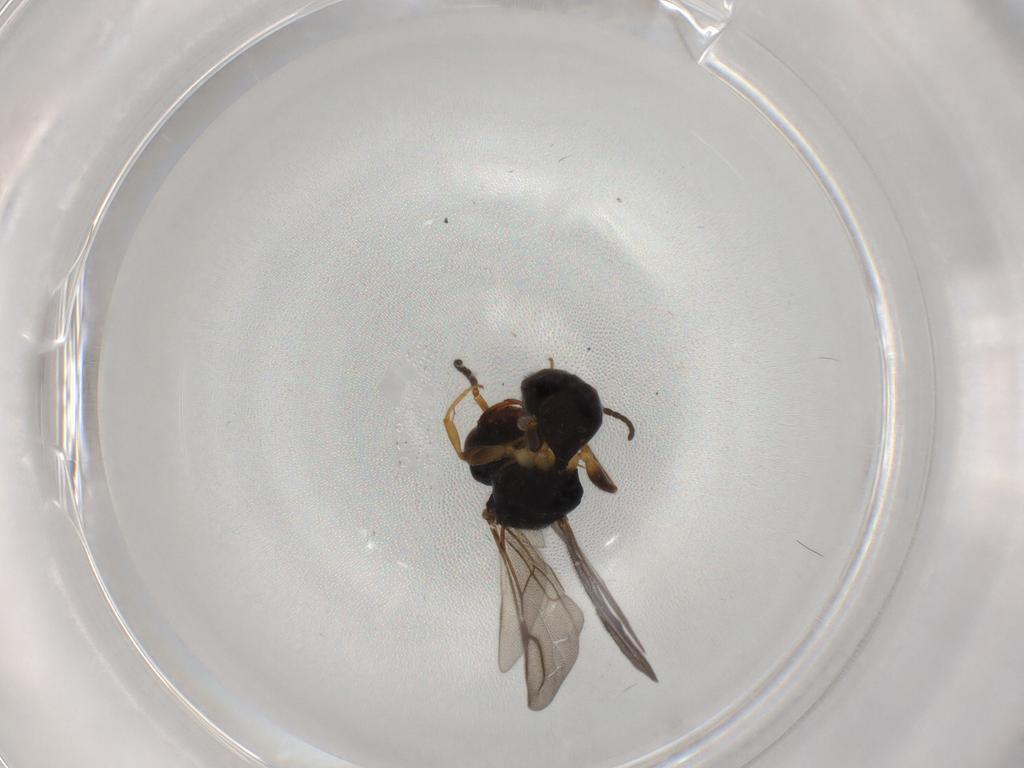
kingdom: Animalia
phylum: Arthropoda
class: Insecta
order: Hymenoptera
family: Bethylidae
